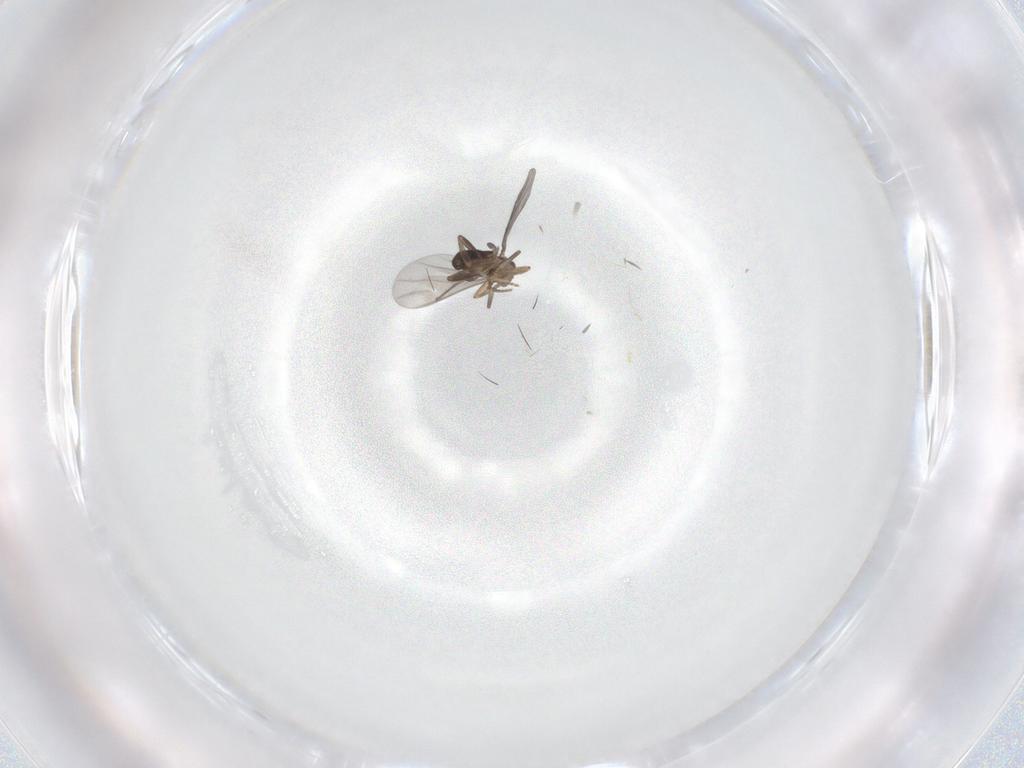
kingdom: Animalia
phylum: Arthropoda
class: Insecta
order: Diptera
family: Cecidomyiidae
